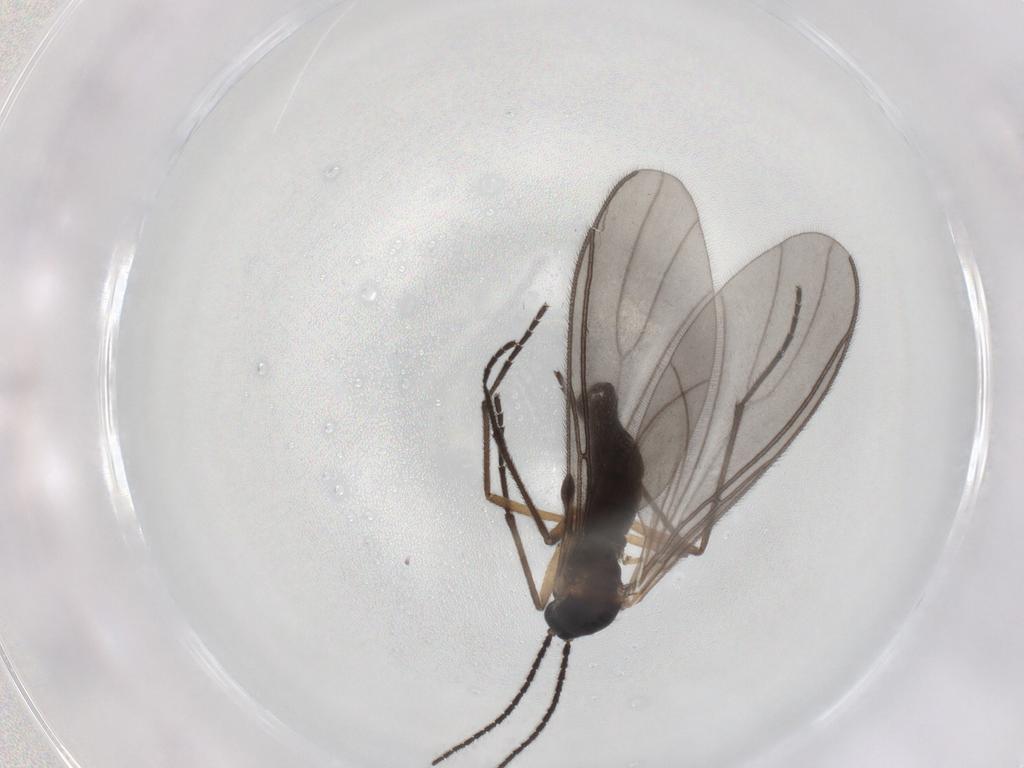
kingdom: Animalia
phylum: Arthropoda
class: Insecta
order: Diptera
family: Sciaridae
